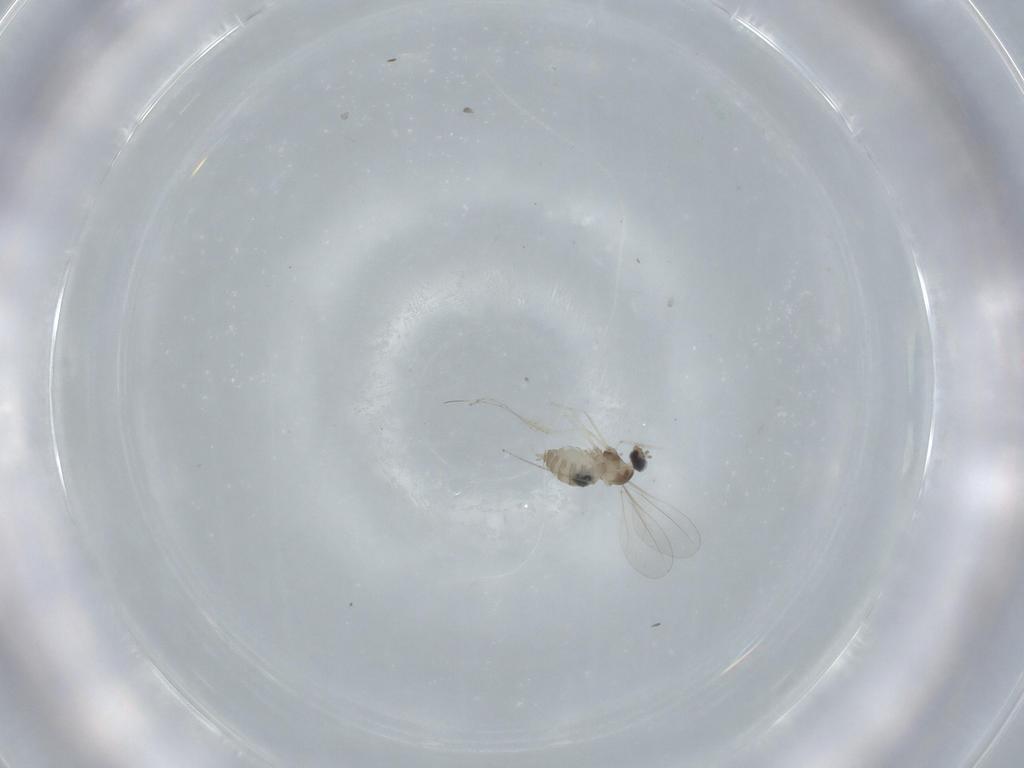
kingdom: Animalia
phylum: Arthropoda
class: Insecta
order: Diptera
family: Cecidomyiidae
